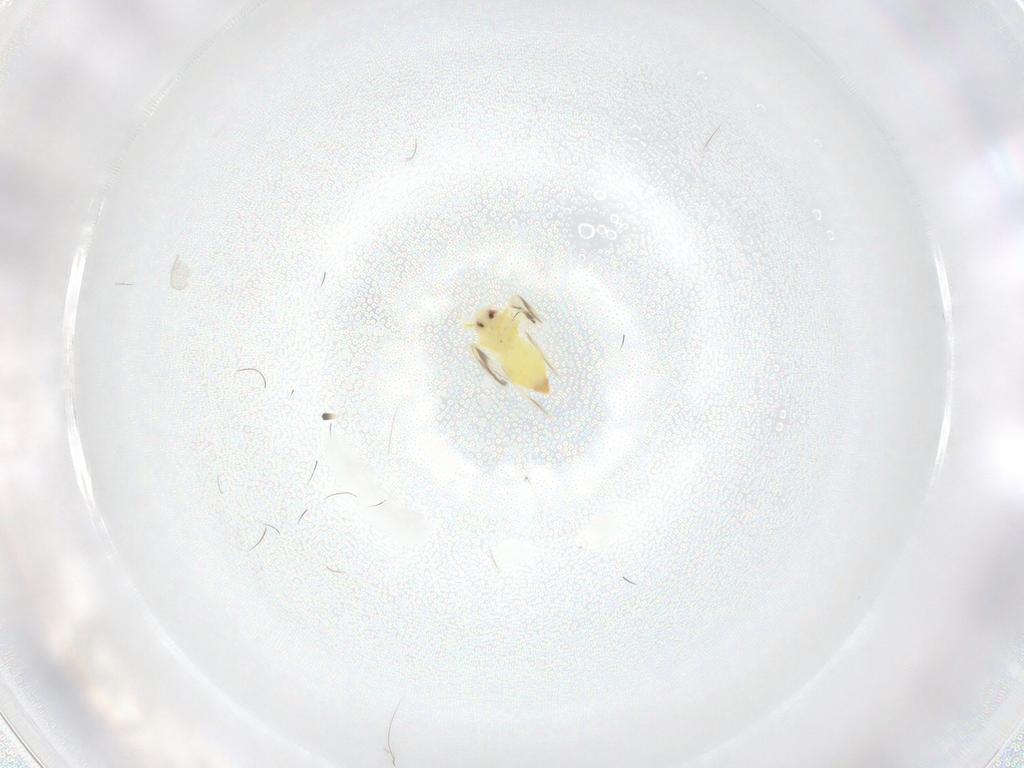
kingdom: Animalia
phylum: Arthropoda
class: Insecta
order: Hemiptera
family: Aleyrodidae
